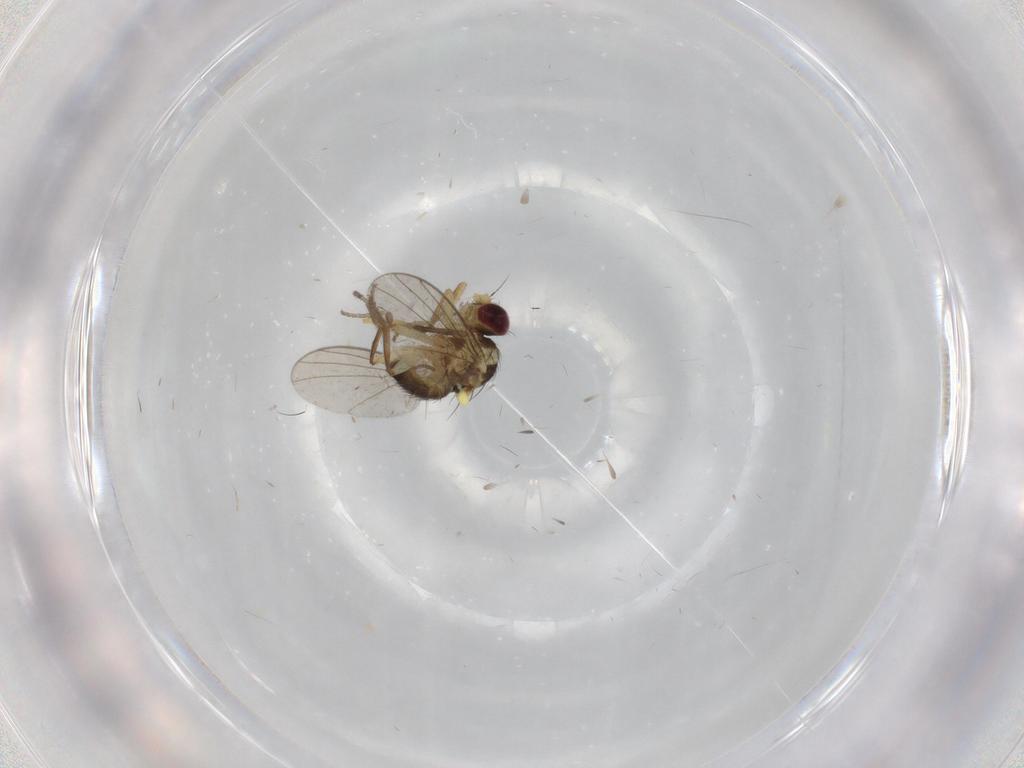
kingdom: Animalia
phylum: Arthropoda
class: Insecta
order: Diptera
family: Agromyzidae
